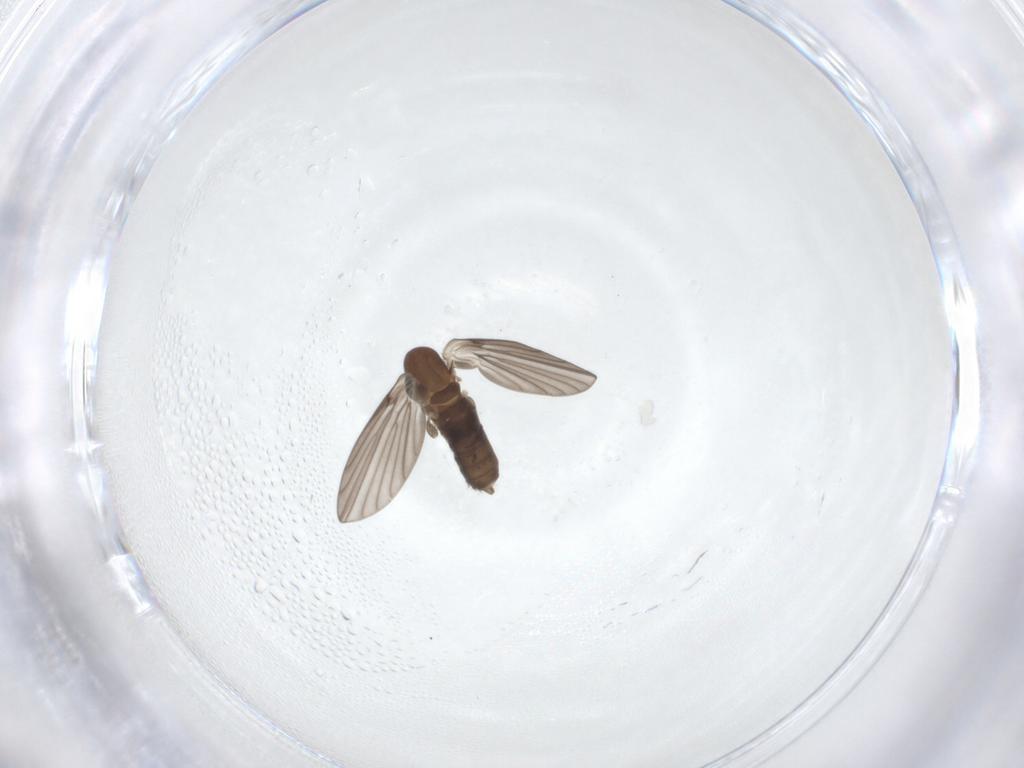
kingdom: Animalia
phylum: Arthropoda
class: Insecta
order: Diptera
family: Ceratopogonidae
